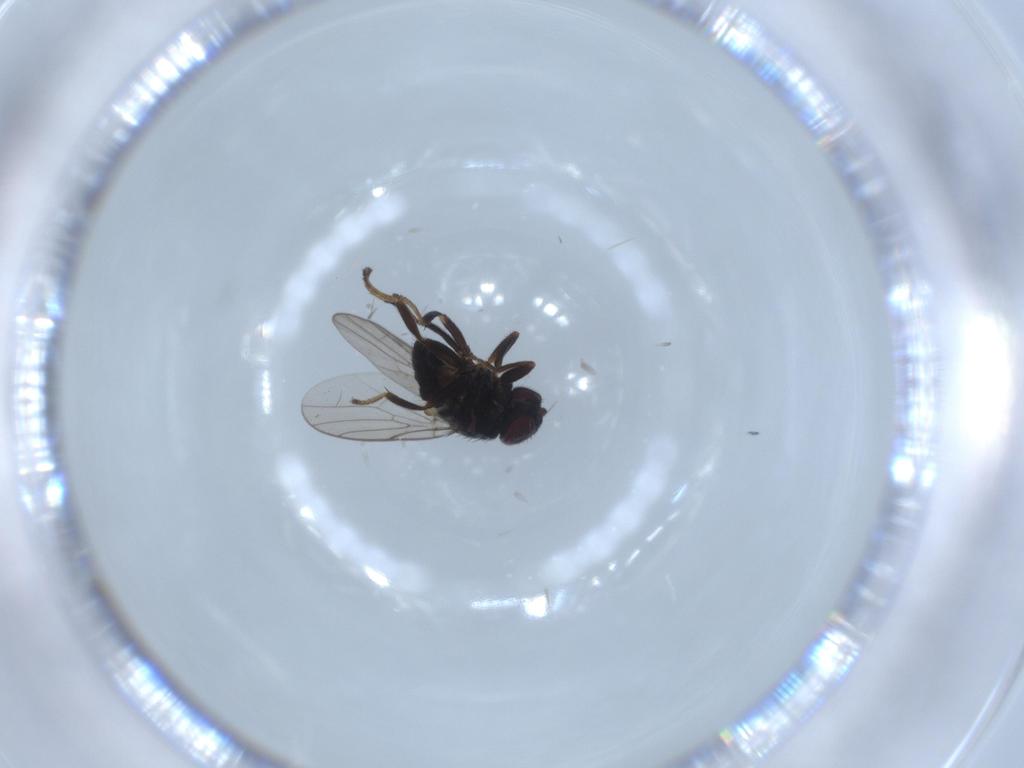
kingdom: Animalia
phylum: Arthropoda
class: Insecta
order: Diptera
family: Chloropidae
